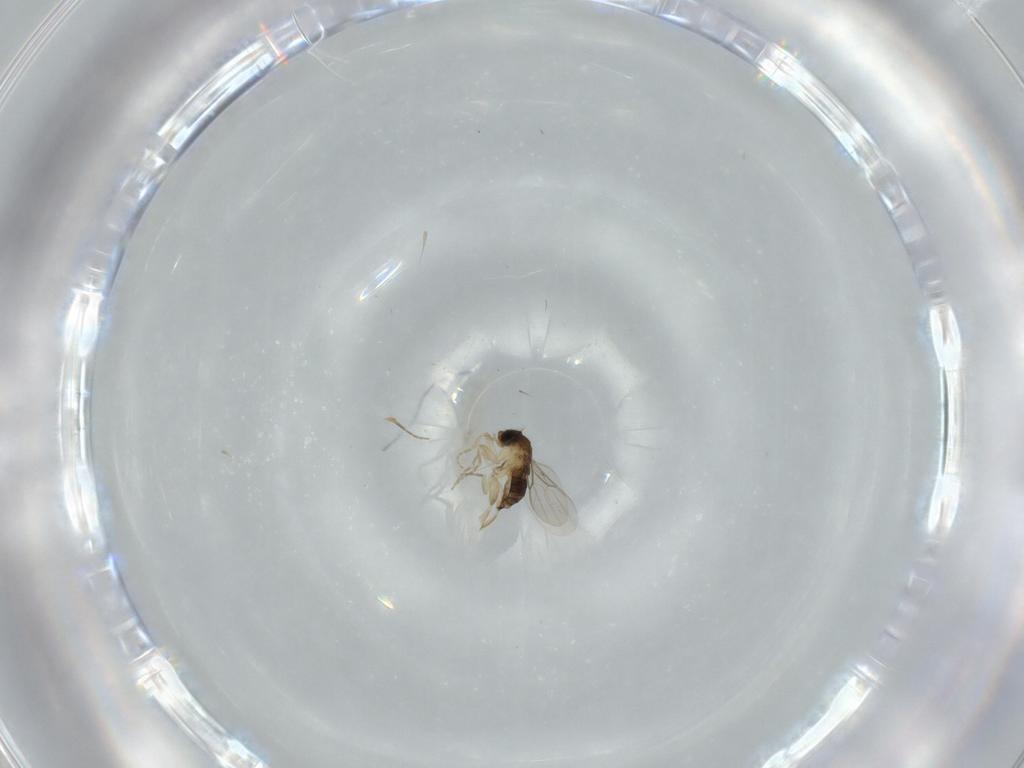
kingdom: Animalia
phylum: Arthropoda
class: Insecta
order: Diptera
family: Phoridae
